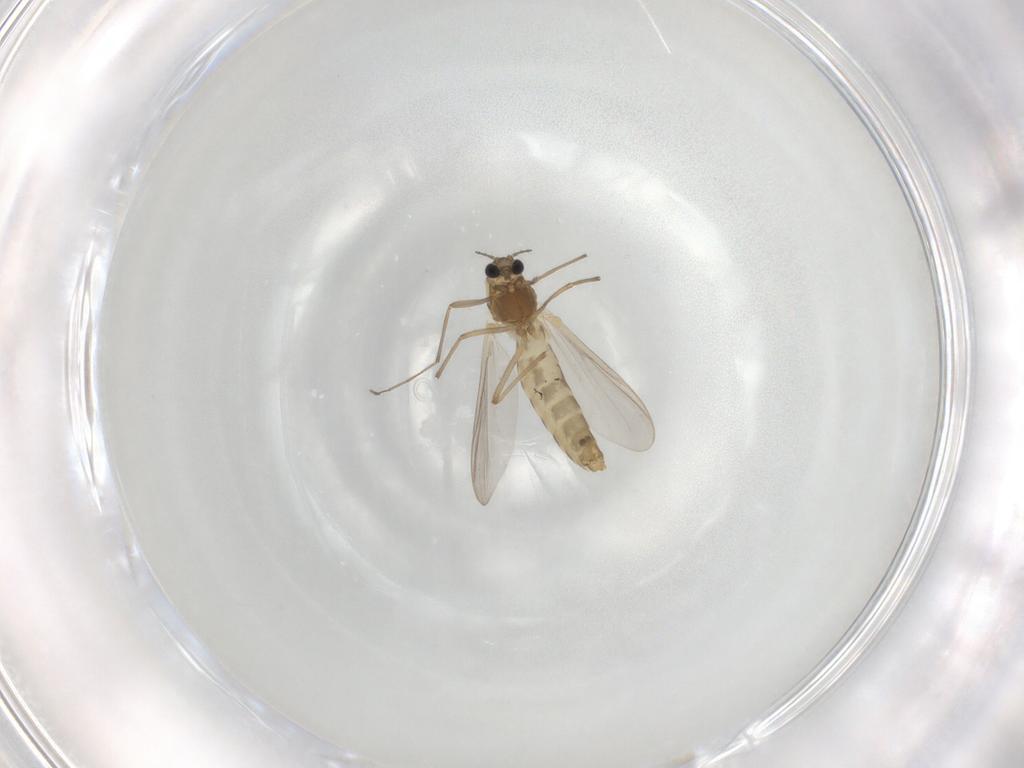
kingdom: Animalia
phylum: Arthropoda
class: Insecta
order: Diptera
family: Chironomidae
